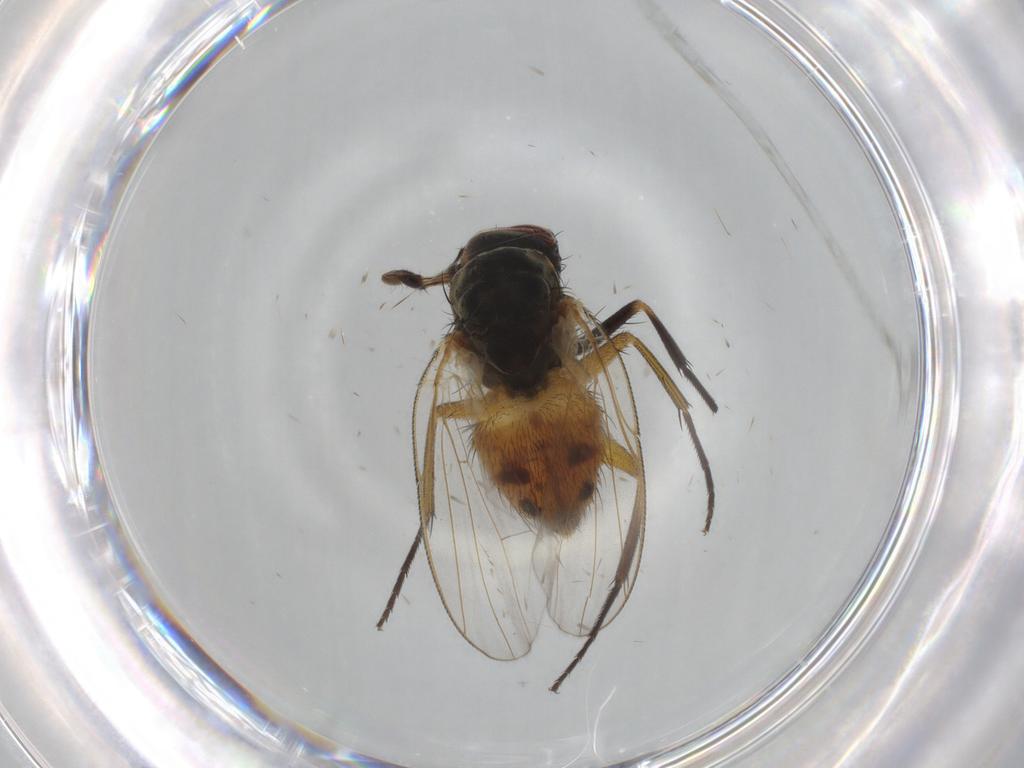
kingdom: Animalia
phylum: Arthropoda
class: Insecta
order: Diptera
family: Muscidae
